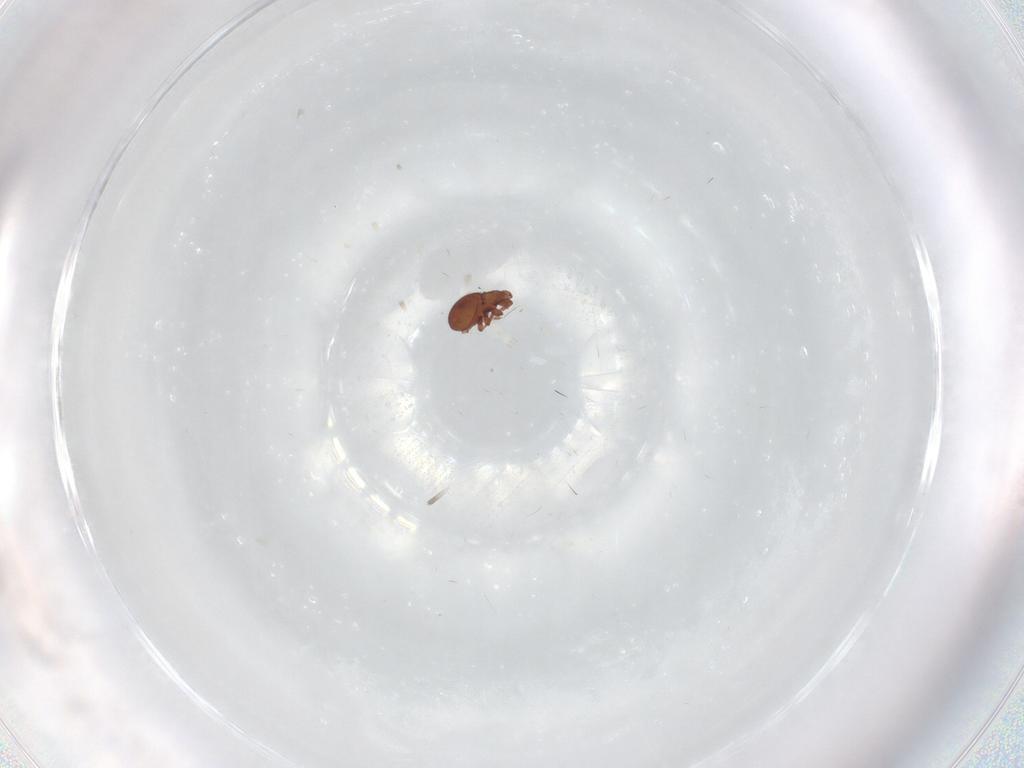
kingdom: Animalia
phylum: Arthropoda
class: Arachnida
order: Sarcoptiformes
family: Eremaeidae
